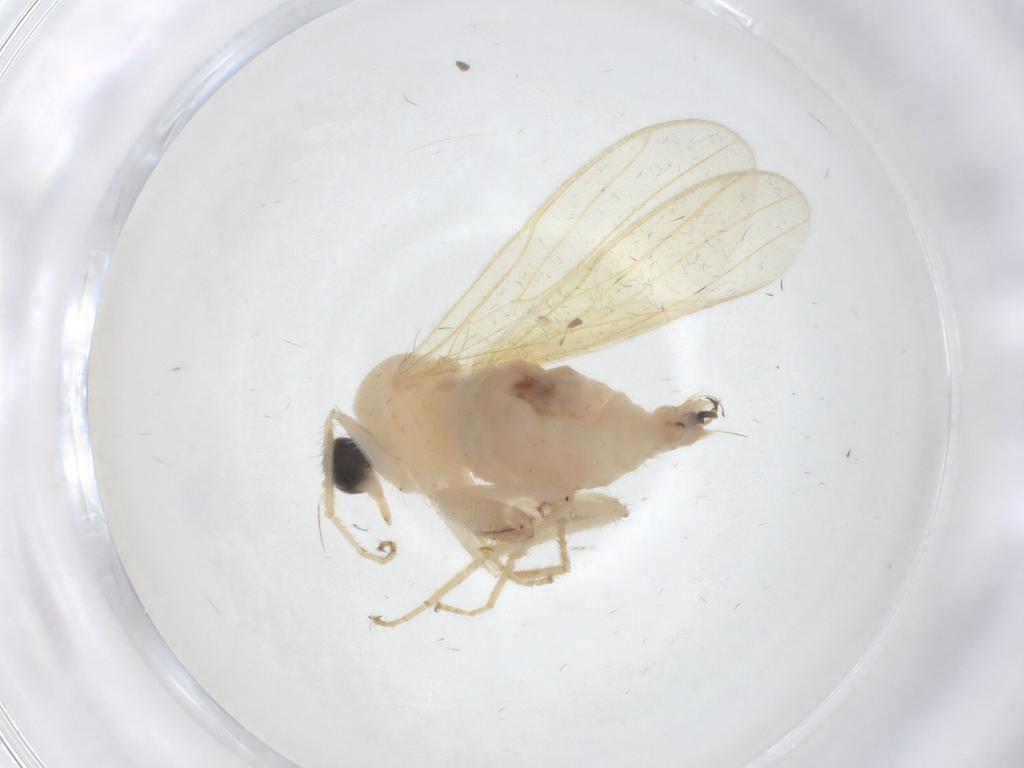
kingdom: Animalia
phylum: Arthropoda
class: Insecta
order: Diptera
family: Hybotidae
